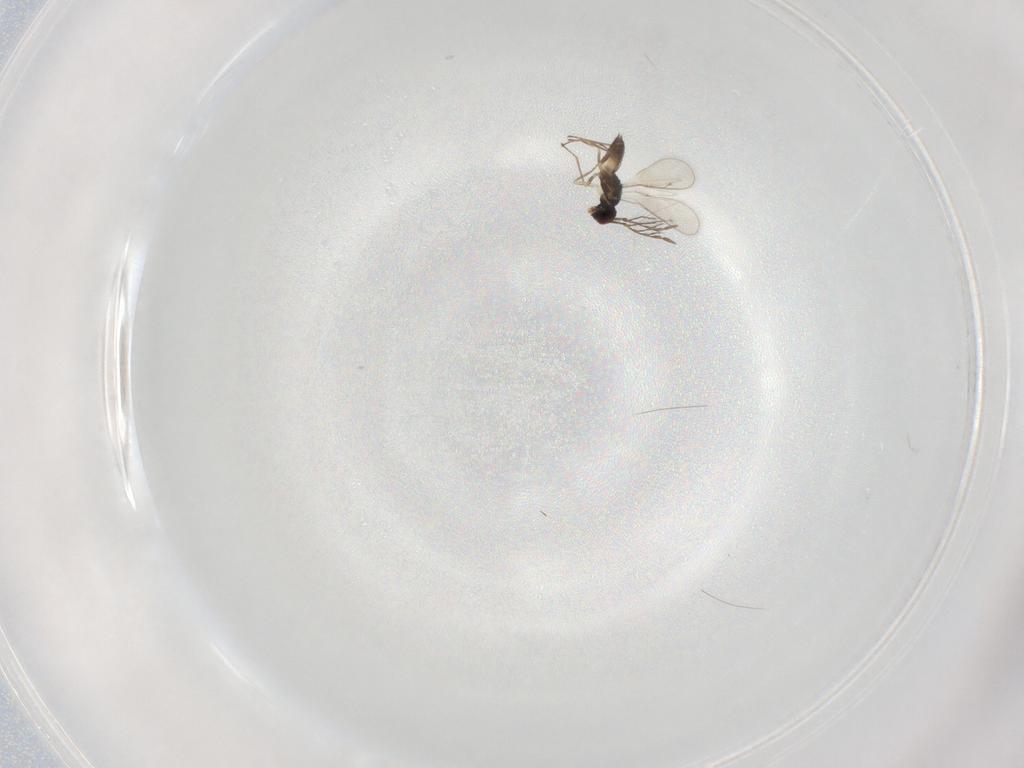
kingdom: Animalia
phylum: Arthropoda
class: Insecta
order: Hymenoptera
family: Eulophidae
